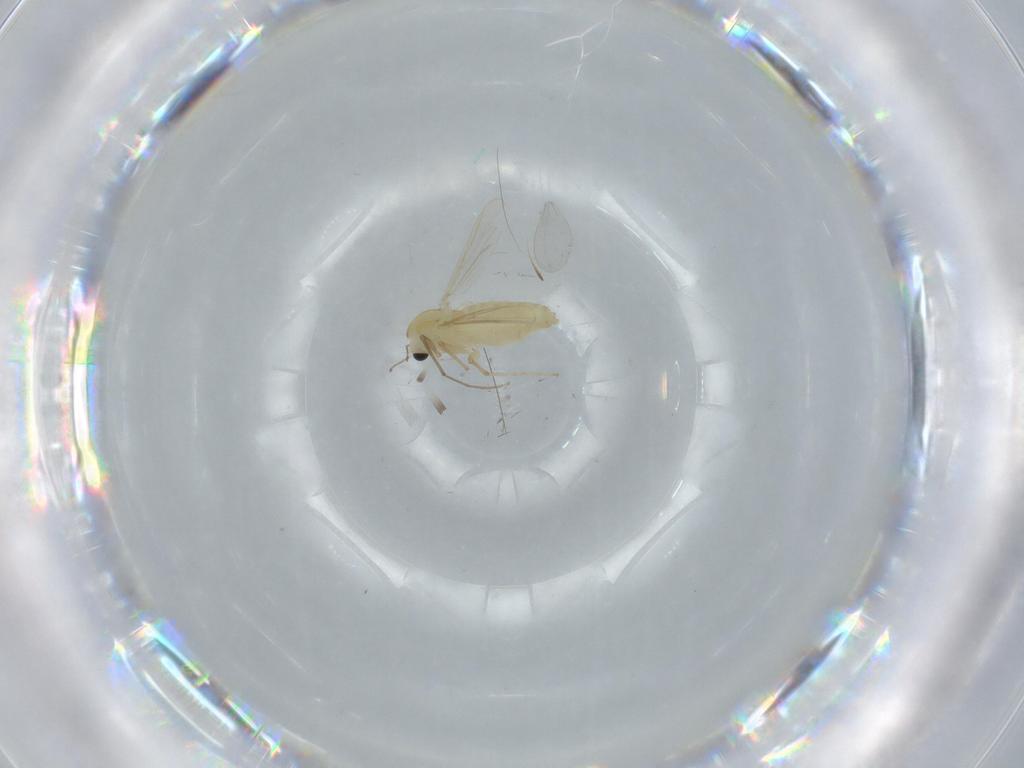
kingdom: Animalia
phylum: Arthropoda
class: Insecta
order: Diptera
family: Chironomidae
